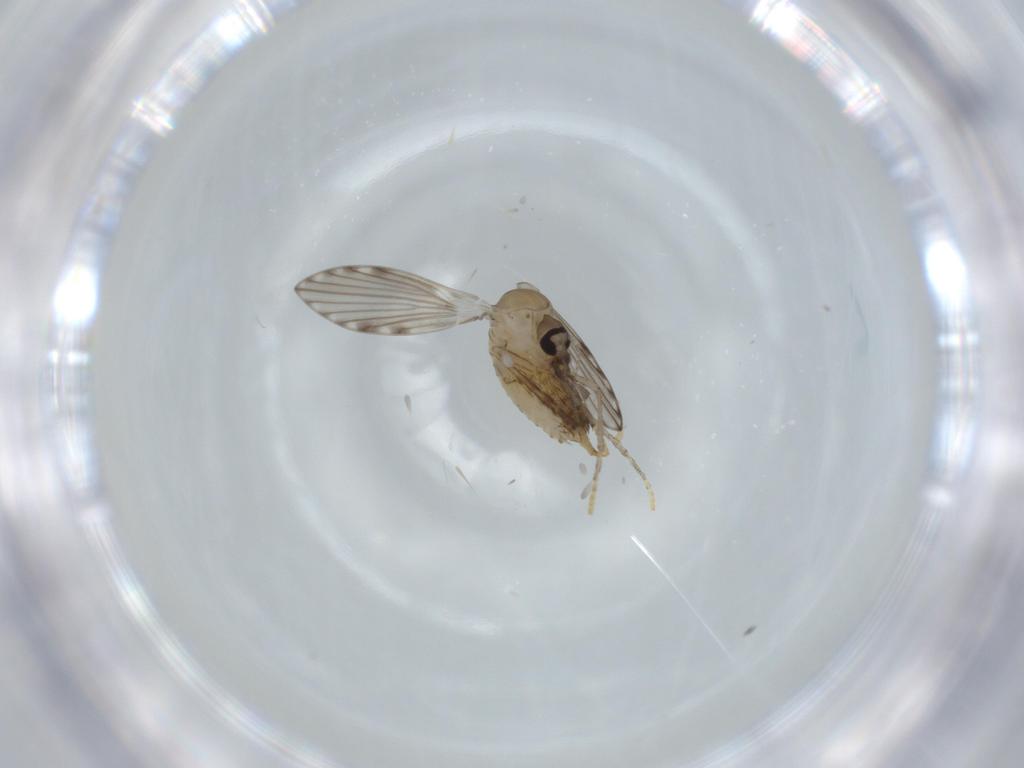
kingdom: Animalia
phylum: Arthropoda
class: Insecta
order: Diptera
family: Psychodidae
